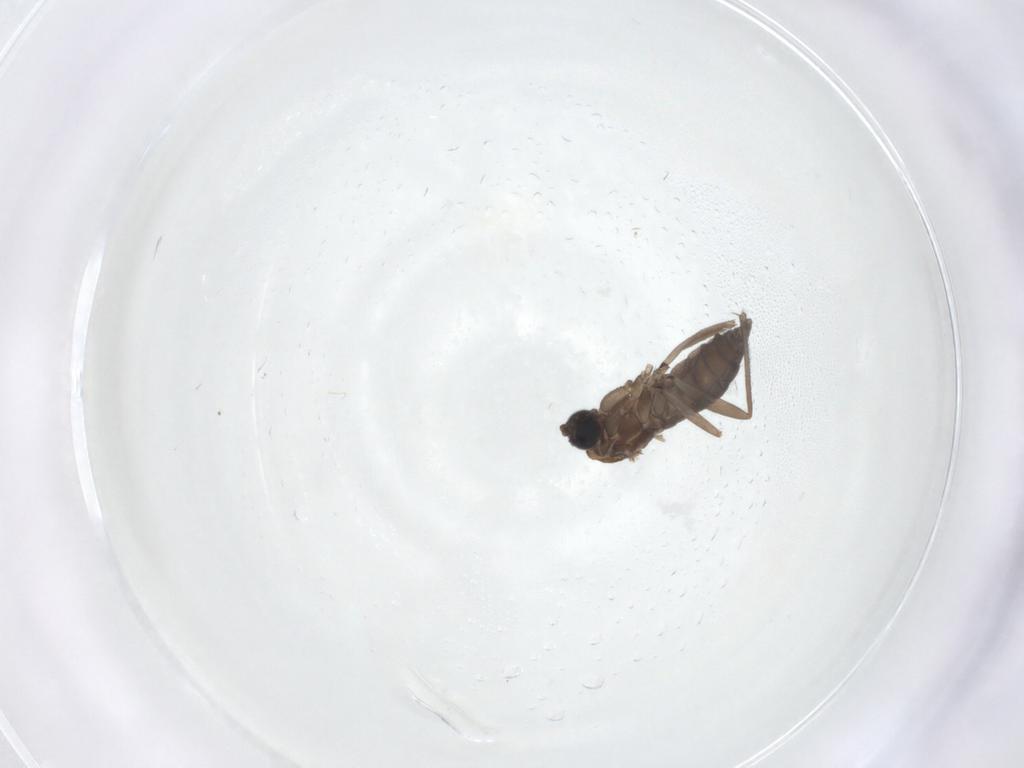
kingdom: Animalia
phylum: Arthropoda
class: Insecta
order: Diptera
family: Sciaridae
